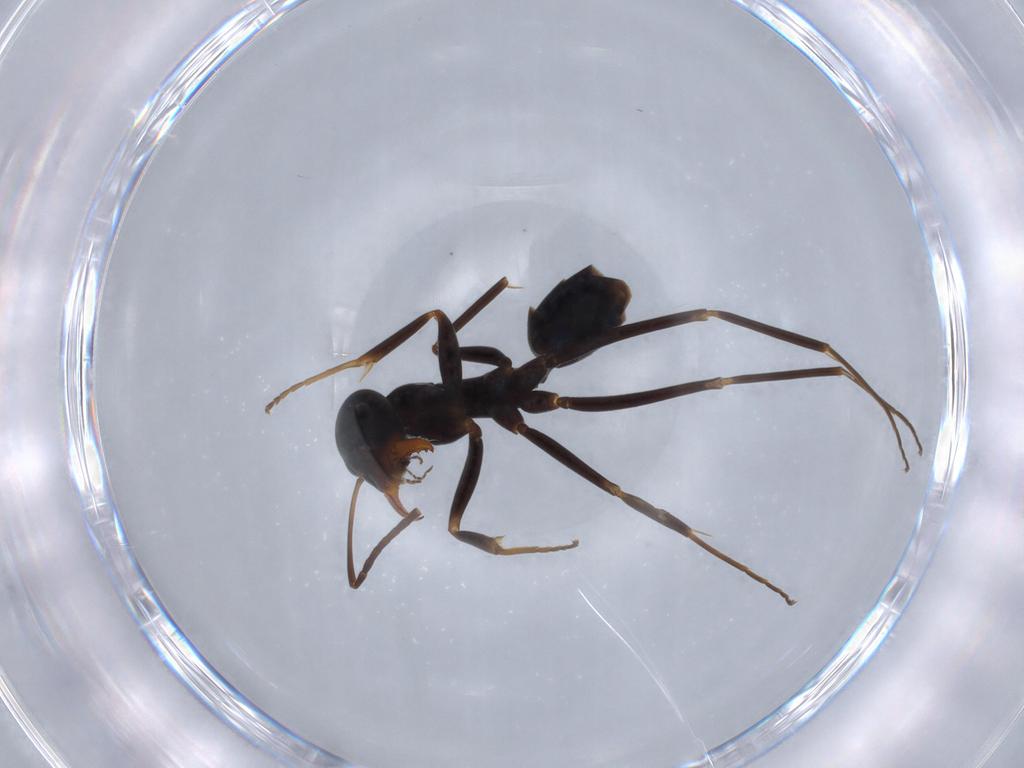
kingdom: Animalia
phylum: Arthropoda
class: Insecta
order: Hymenoptera
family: Formicidae
